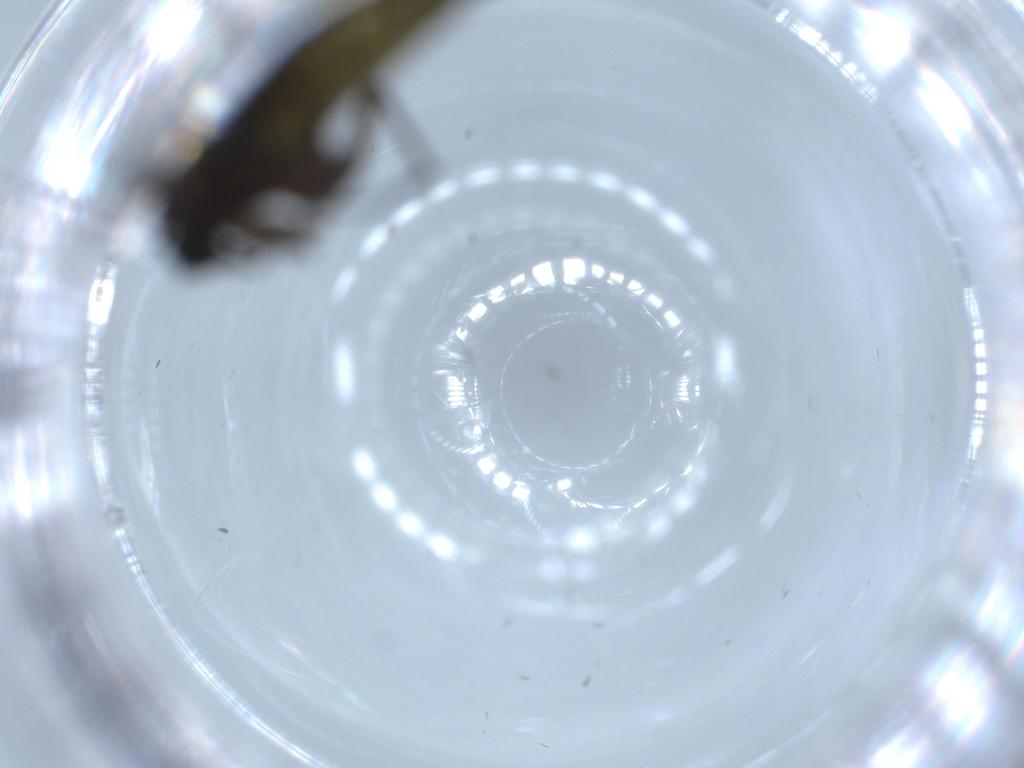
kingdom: Animalia
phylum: Arthropoda
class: Insecta
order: Diptera
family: Sciaridae
